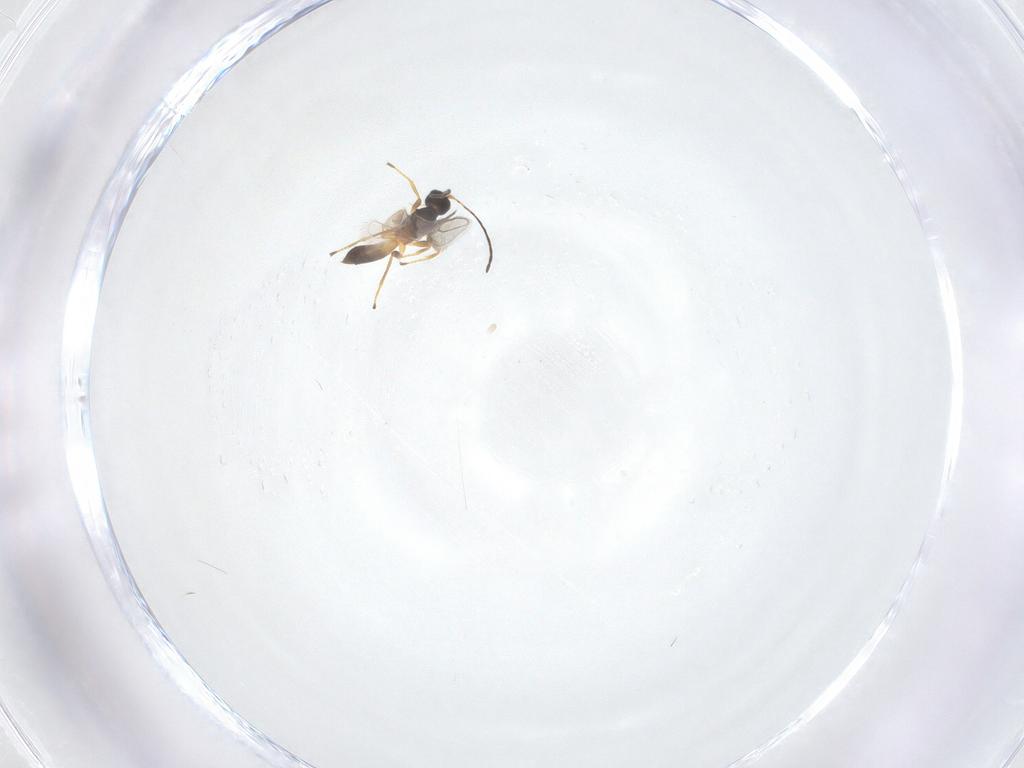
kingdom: Animalia
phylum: Arthropoda
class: Insecta
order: Hymenoptera
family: Braconidae
